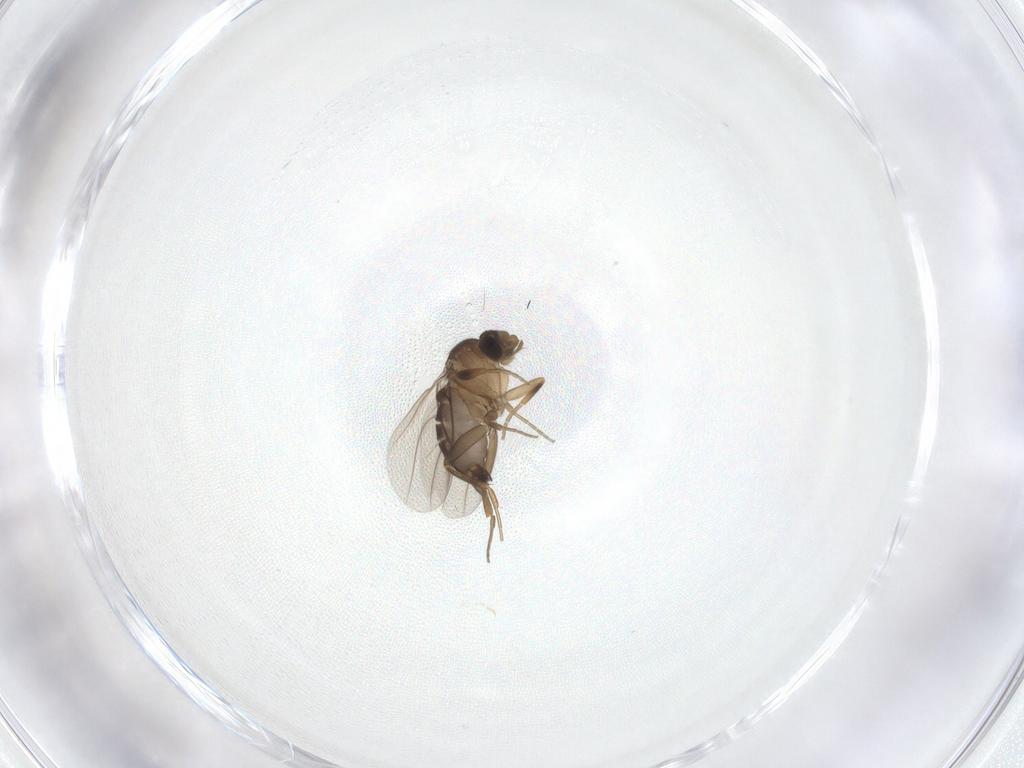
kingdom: Animalia
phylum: Arthropoda
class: Insecta
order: Diptera
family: Phoridae
